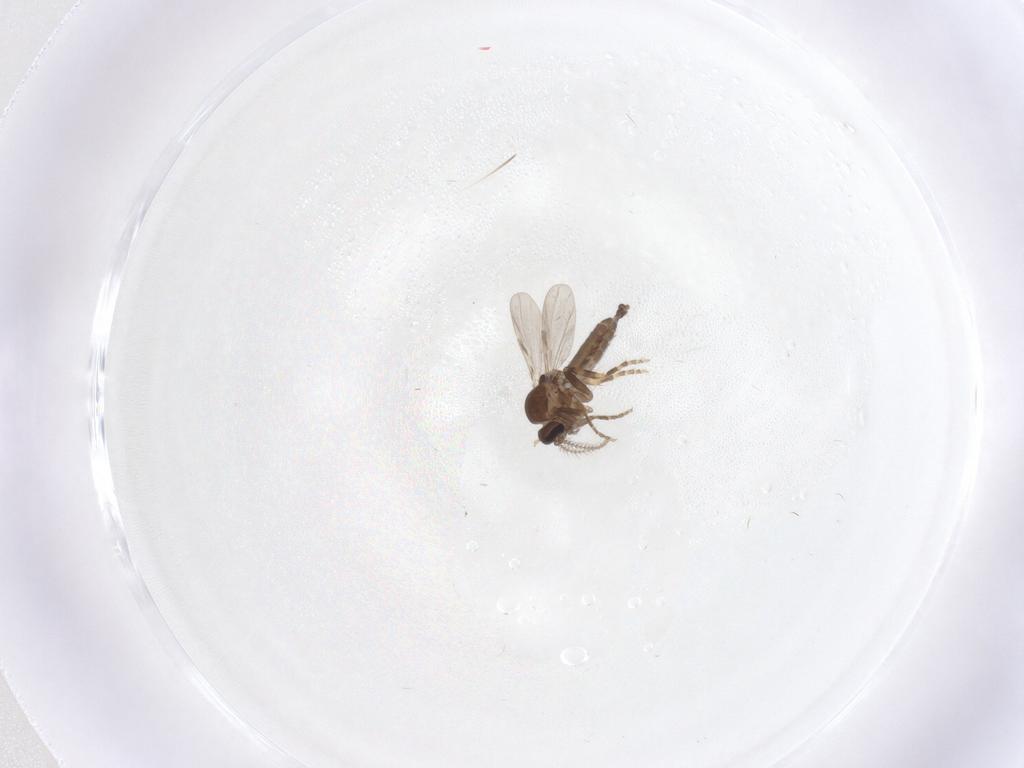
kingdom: Animalia
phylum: Arthropoda
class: Insecta
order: Diptera
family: Ceratopogonidae
